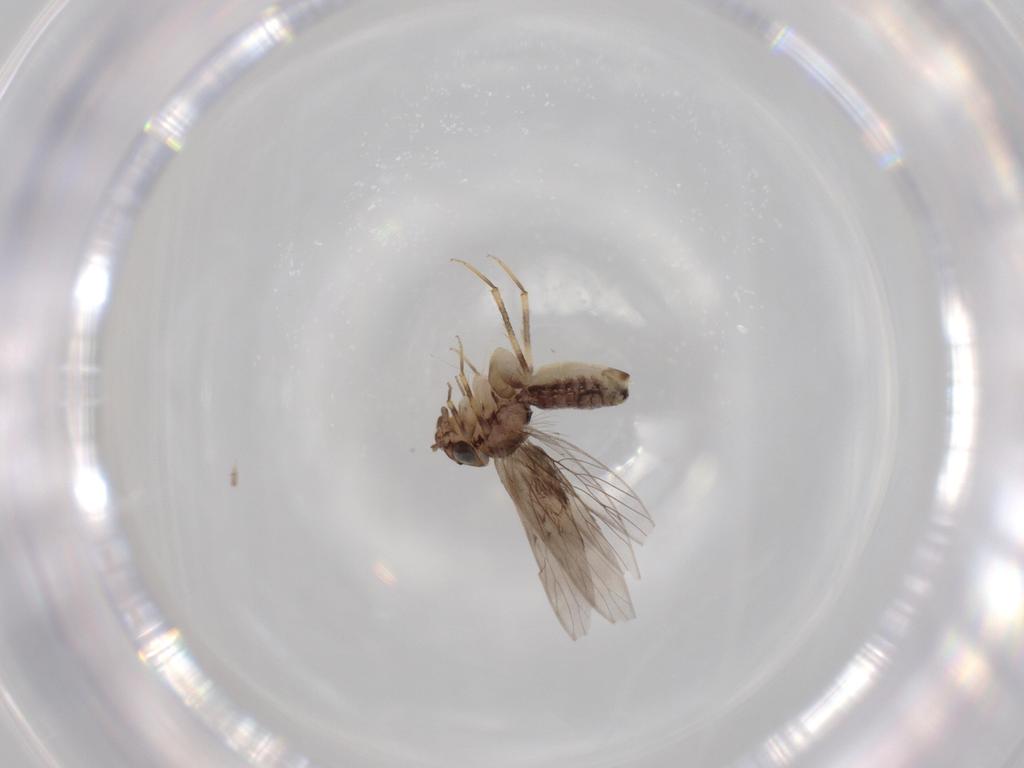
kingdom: Animalia
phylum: Arthropoda
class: Insecta
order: Psocodea
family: Lepidopsocidae
